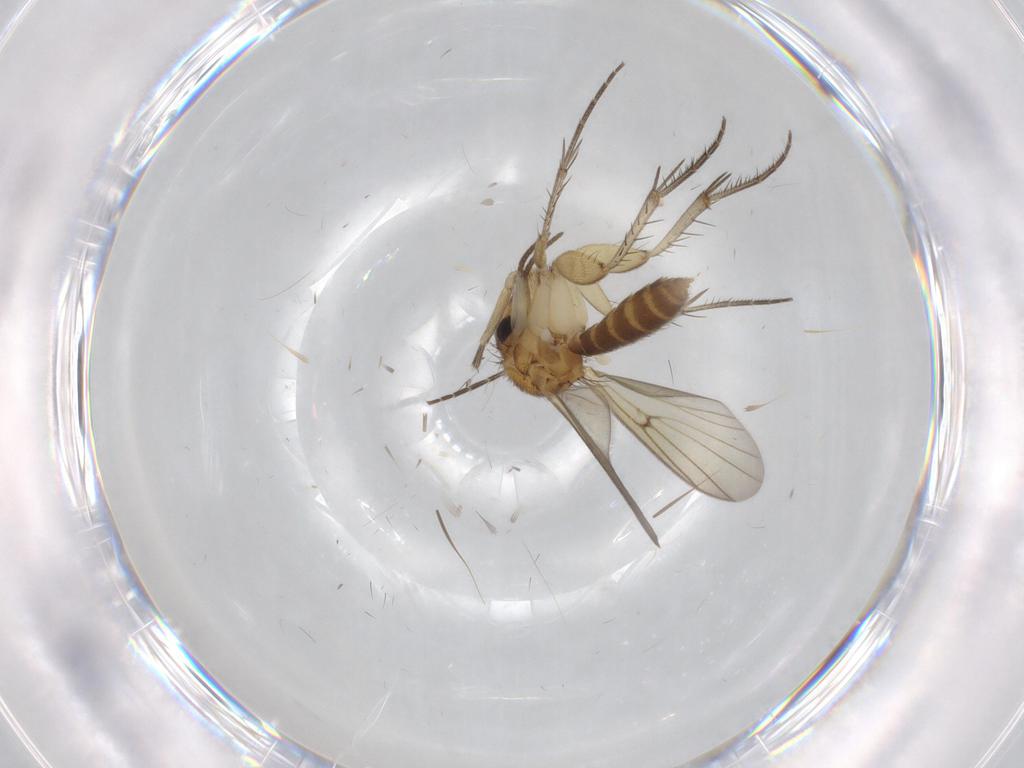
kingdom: Animalia
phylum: Arthropoda
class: Insecta
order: Diptera
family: Mycetophilidae
